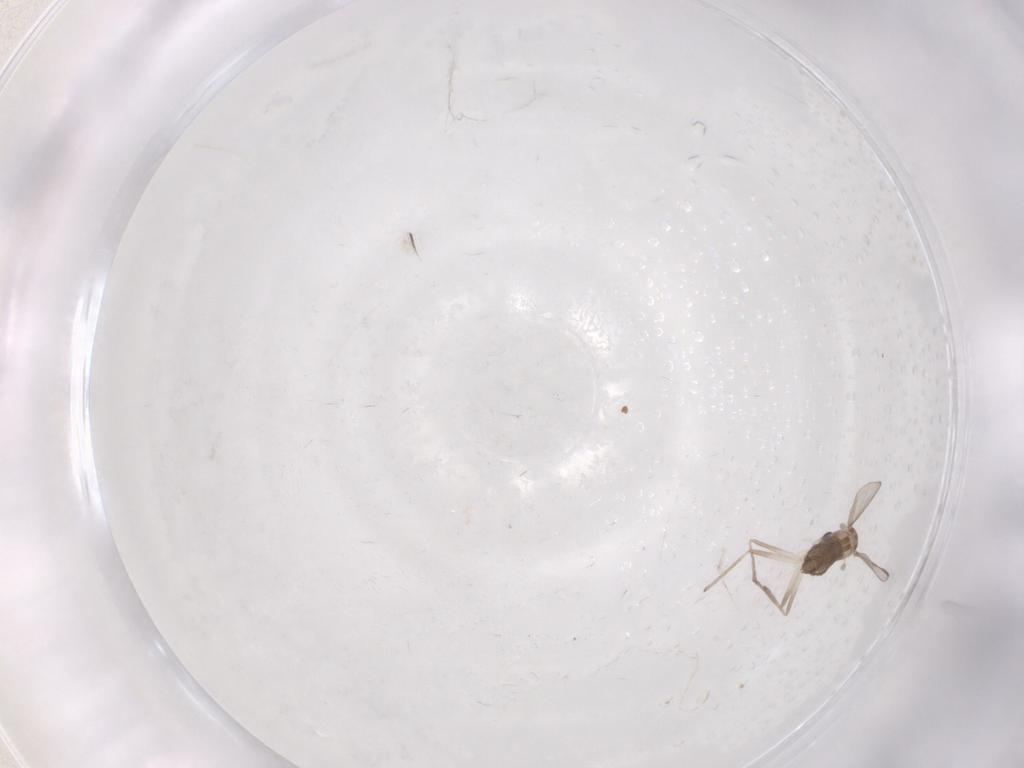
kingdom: Animalia
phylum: Arthropoda
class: Insecta
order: Diptera
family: Cecidomyiidae
